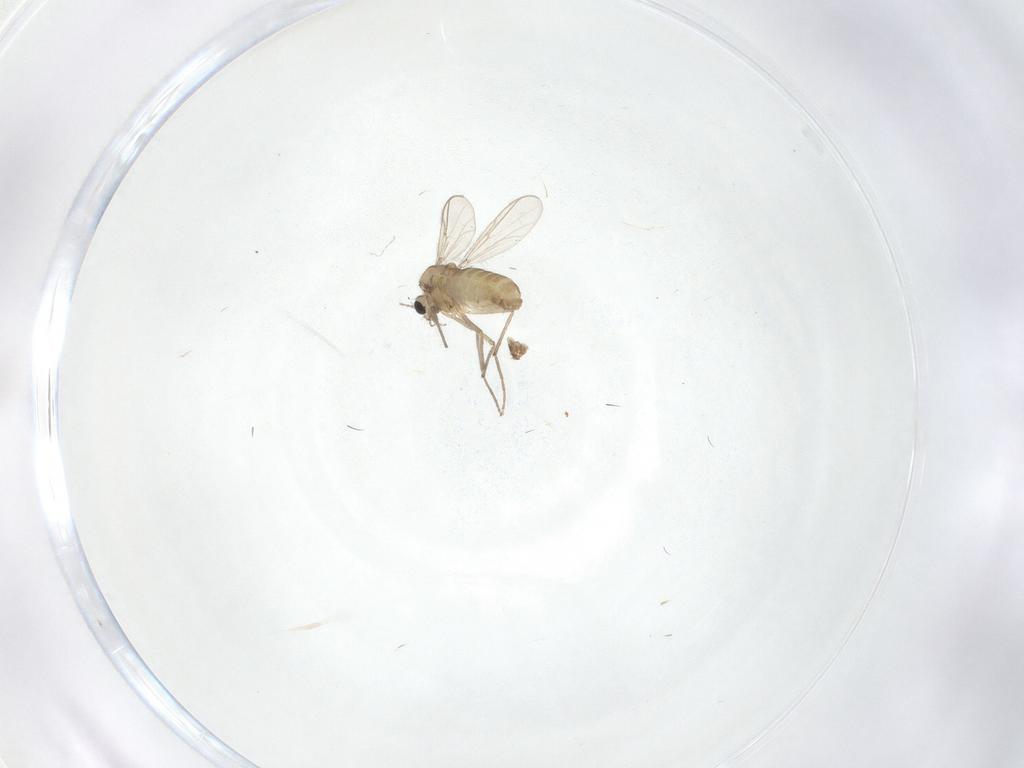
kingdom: Animalia
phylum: Arthropoda
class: Insecta
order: Diptera
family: Chironomidae
